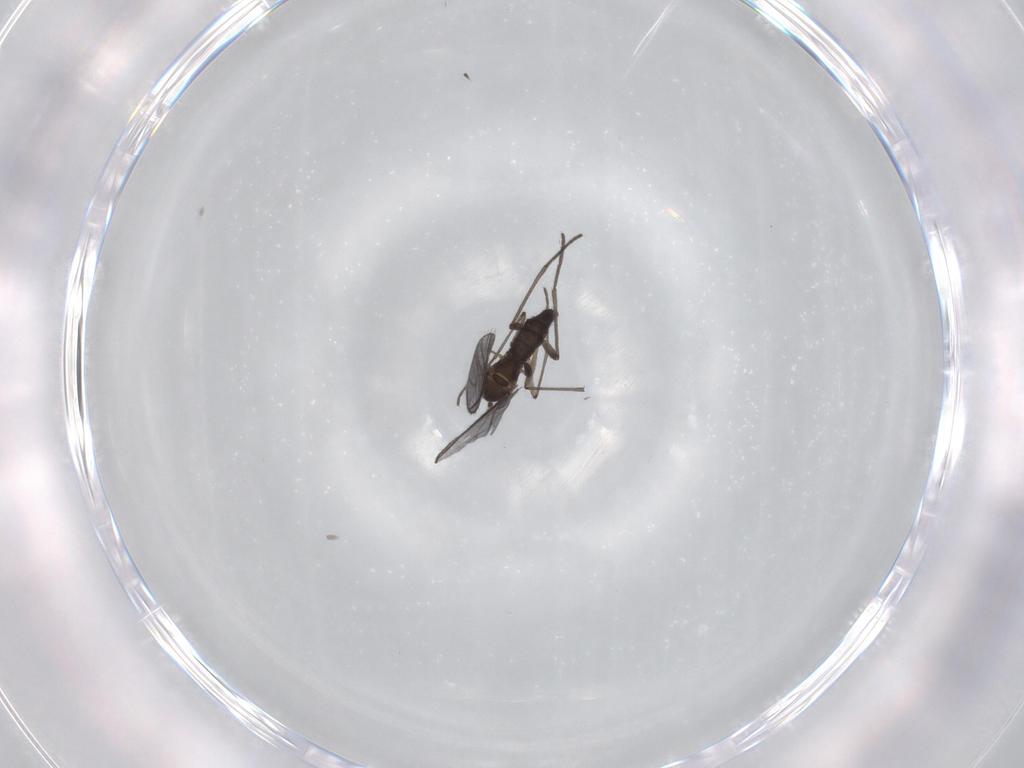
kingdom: Animalia
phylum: Arthropoda
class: Insecta
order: Diptera
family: Sciaridae
